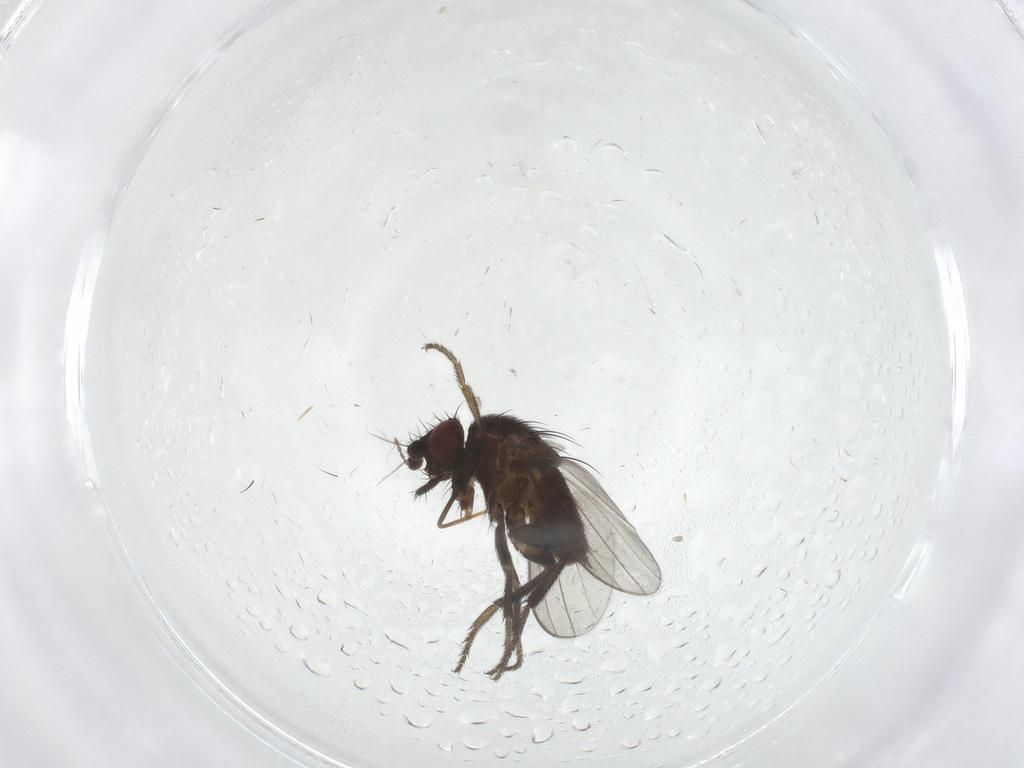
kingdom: Animalia
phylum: Arthropoda
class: Insecta
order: Diptera
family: Milichiidae
